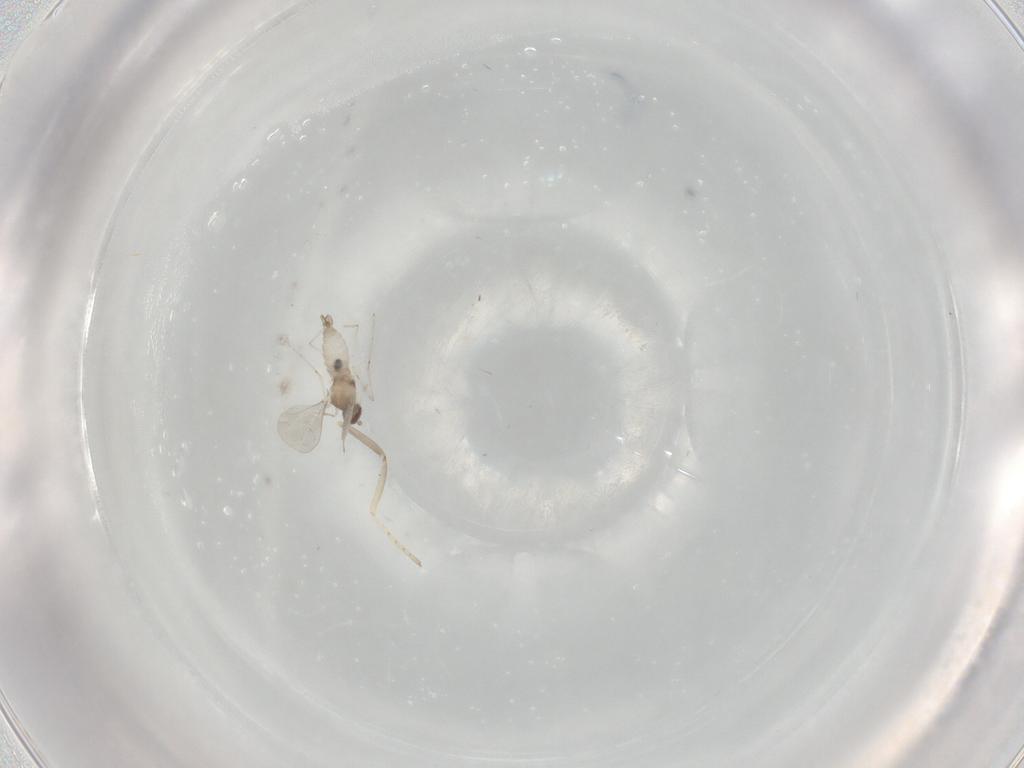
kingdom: Animalia
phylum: Arthropoda
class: Insecta
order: Diptera
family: Cecidomyiidae
